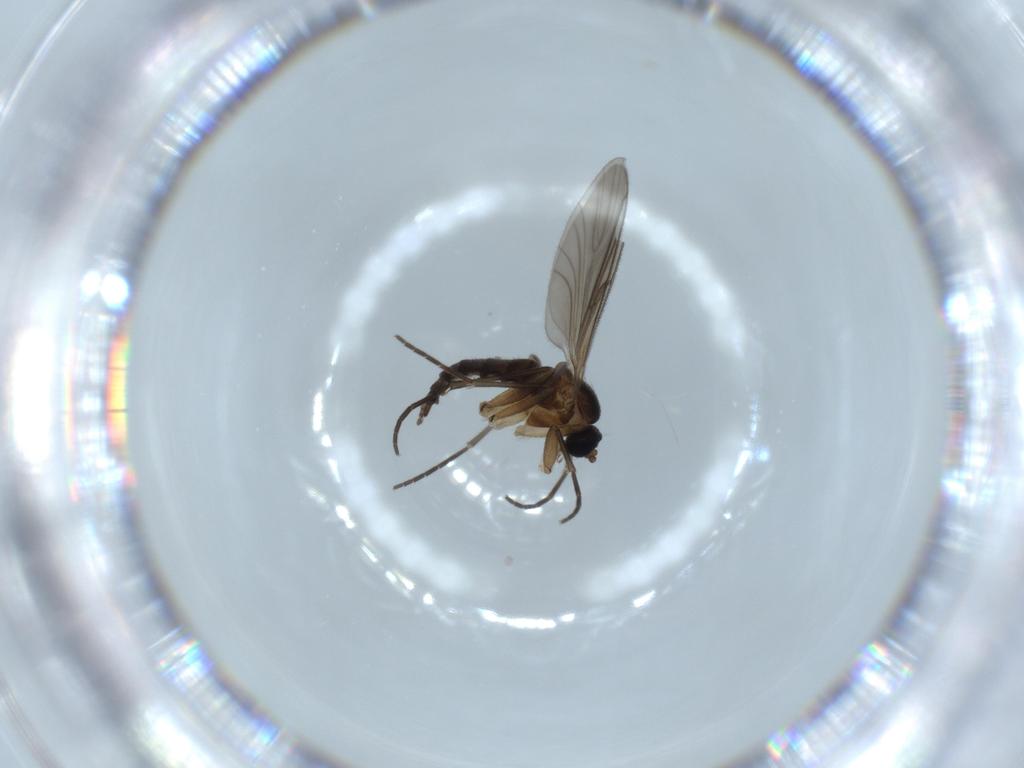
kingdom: Animalia
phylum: Arthropoda
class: Insecta
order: Diptera
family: Sciaridae
